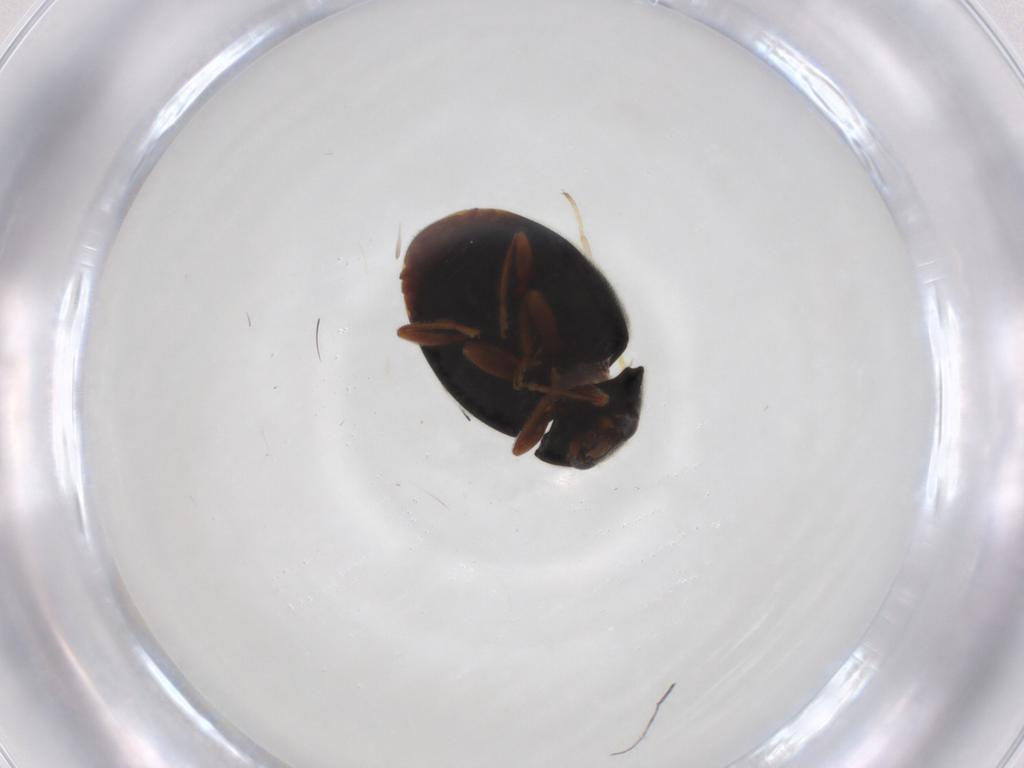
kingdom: Animalia
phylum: Arthropoda
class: Insecta
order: Coleoptera
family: Coccinellidae
